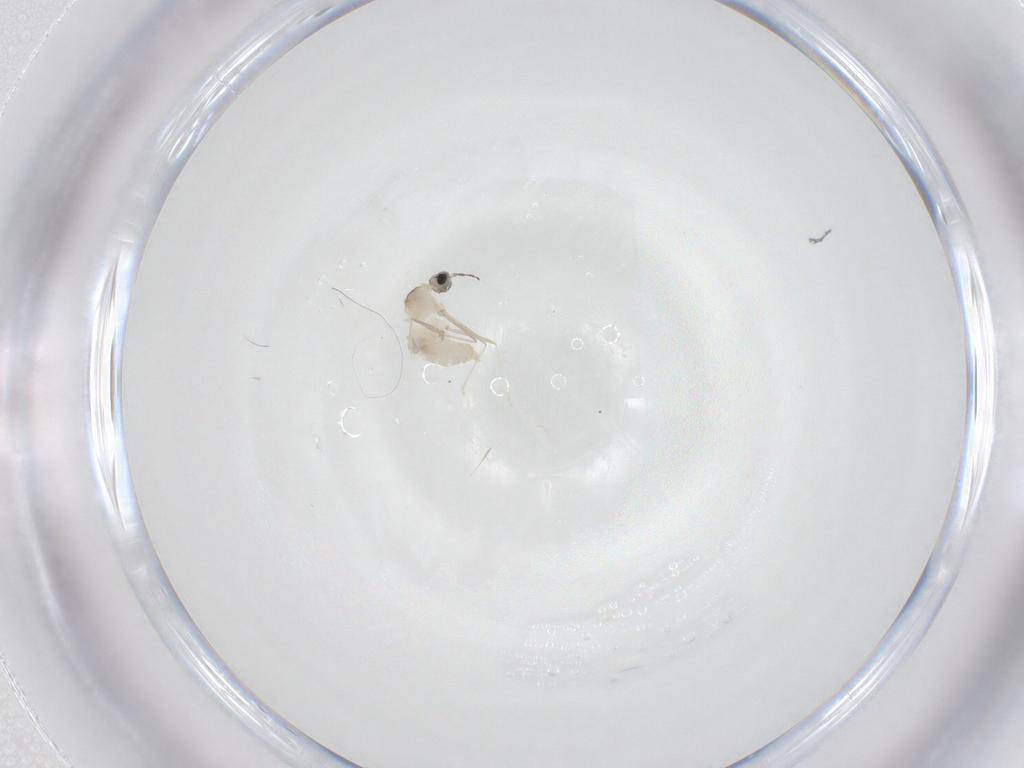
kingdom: Animalia
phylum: Arthropoda
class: Insecta
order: Diptera
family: Cecidomyiidae
